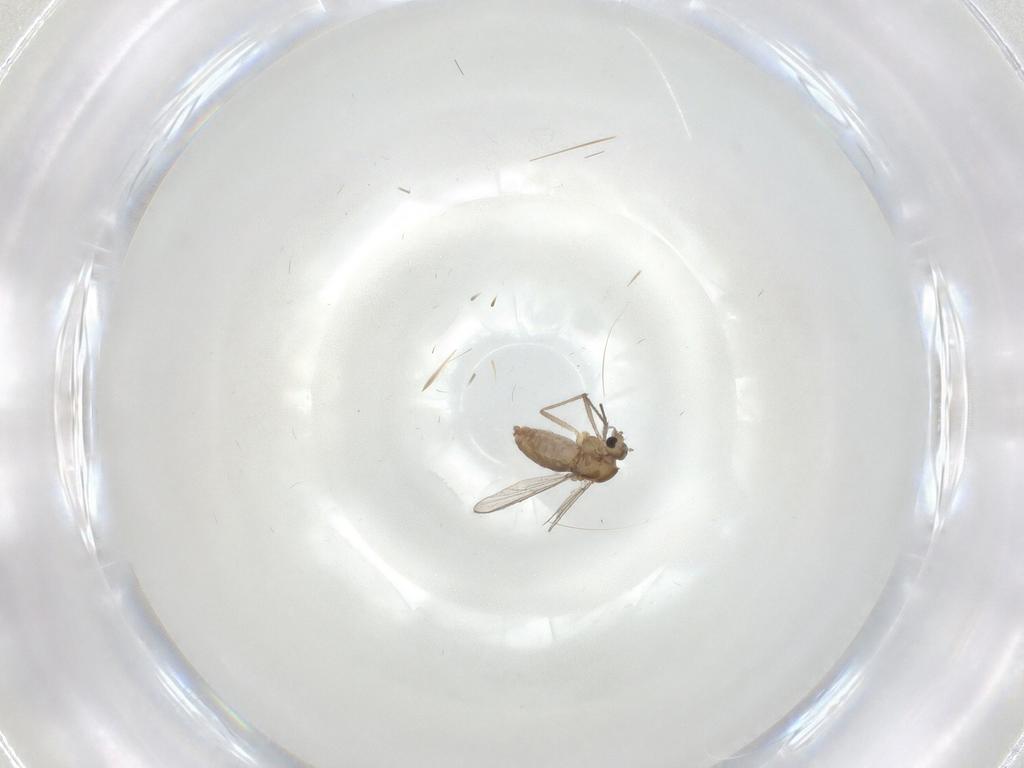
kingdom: Animalia
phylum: Arthropoda
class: Insecta
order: Diptera
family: Chironomidae
